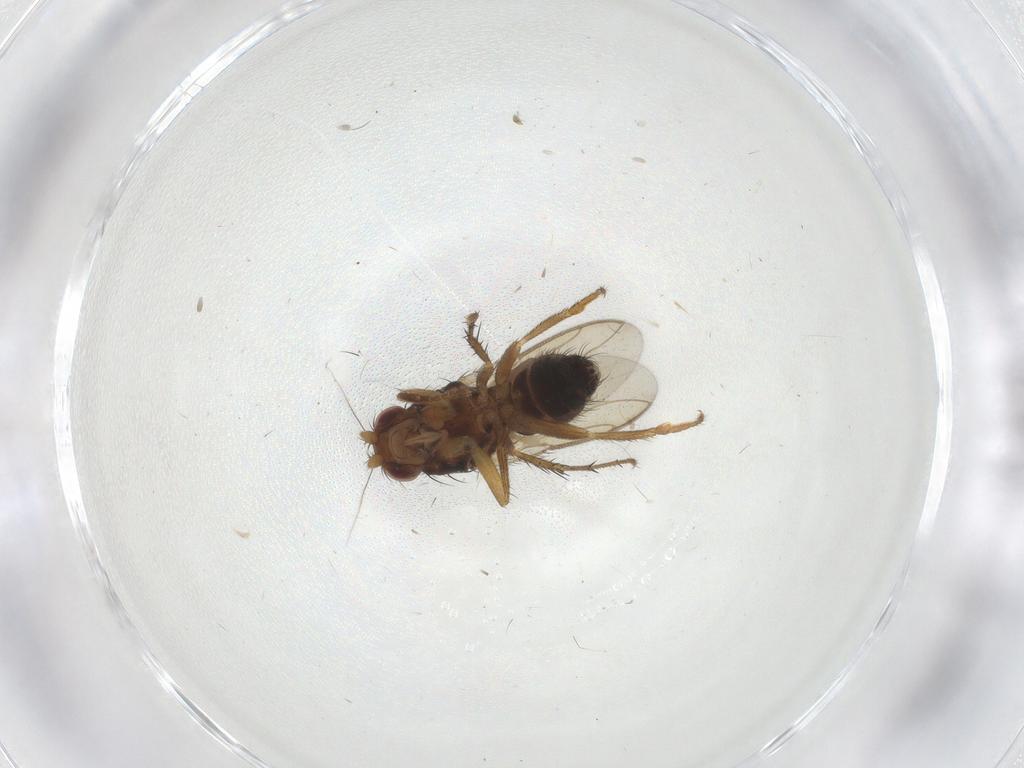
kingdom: Animalia
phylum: Arthropoda
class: Insecta
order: Diptera
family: Sphaeroceridae
